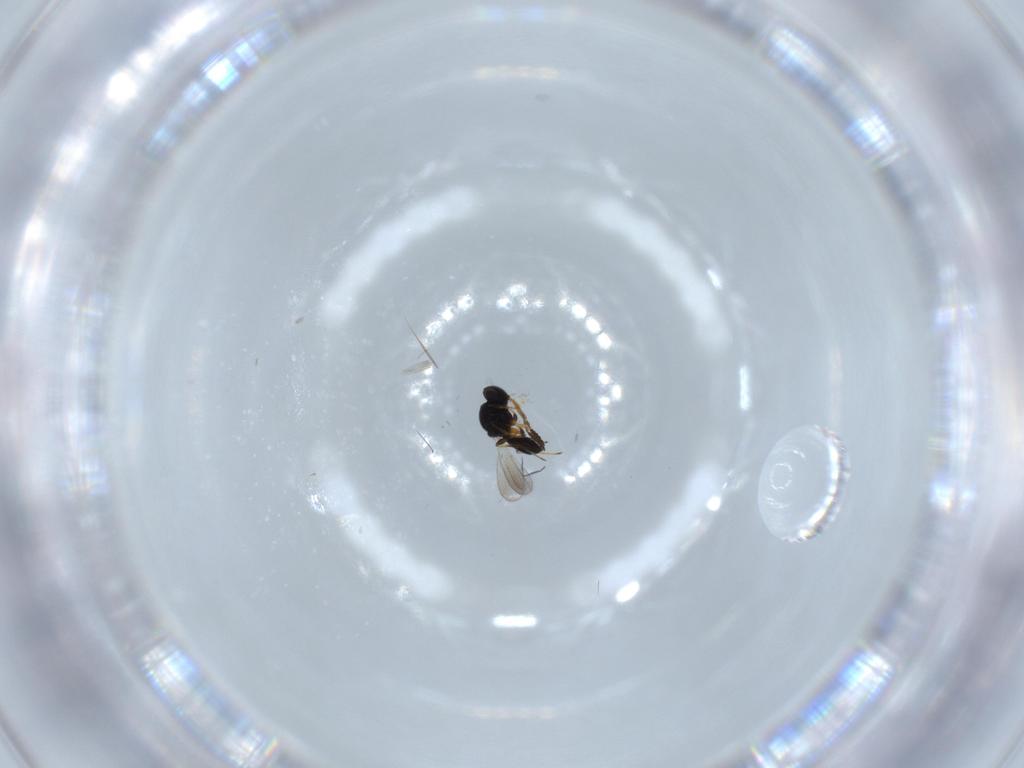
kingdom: Animalia
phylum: Arthropoda
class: Insecta
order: Hymenoptera
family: Platygastridae
